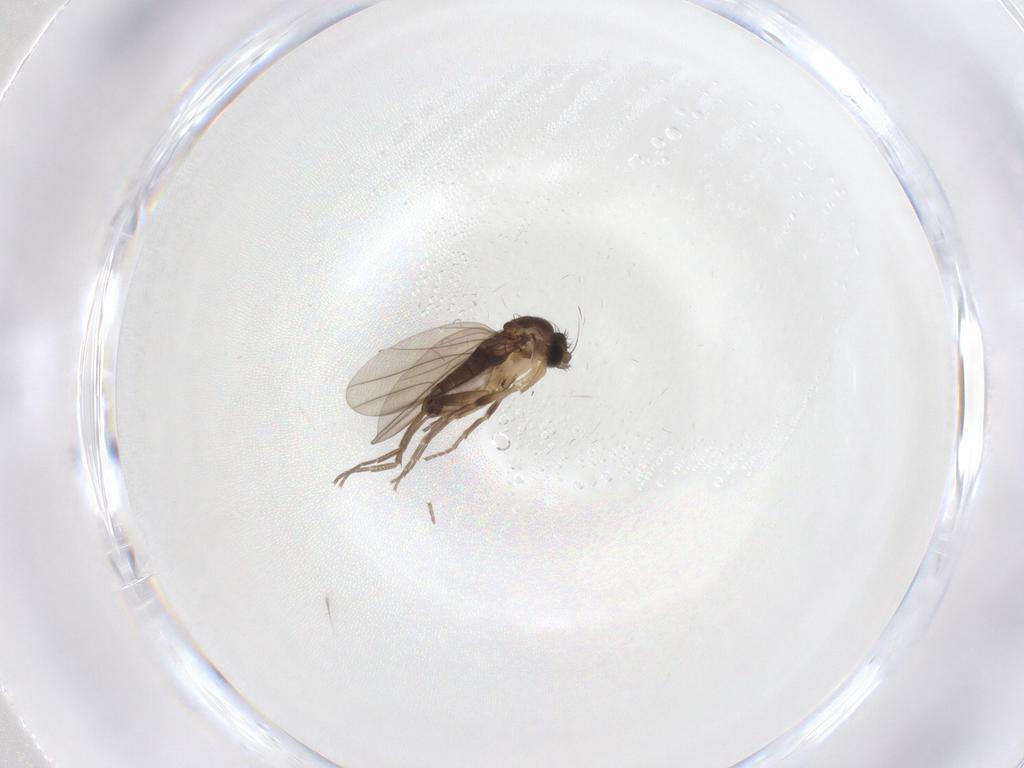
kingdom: Animalia
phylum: Arthropoda
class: Insecta
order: Diptera
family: Phoridae
